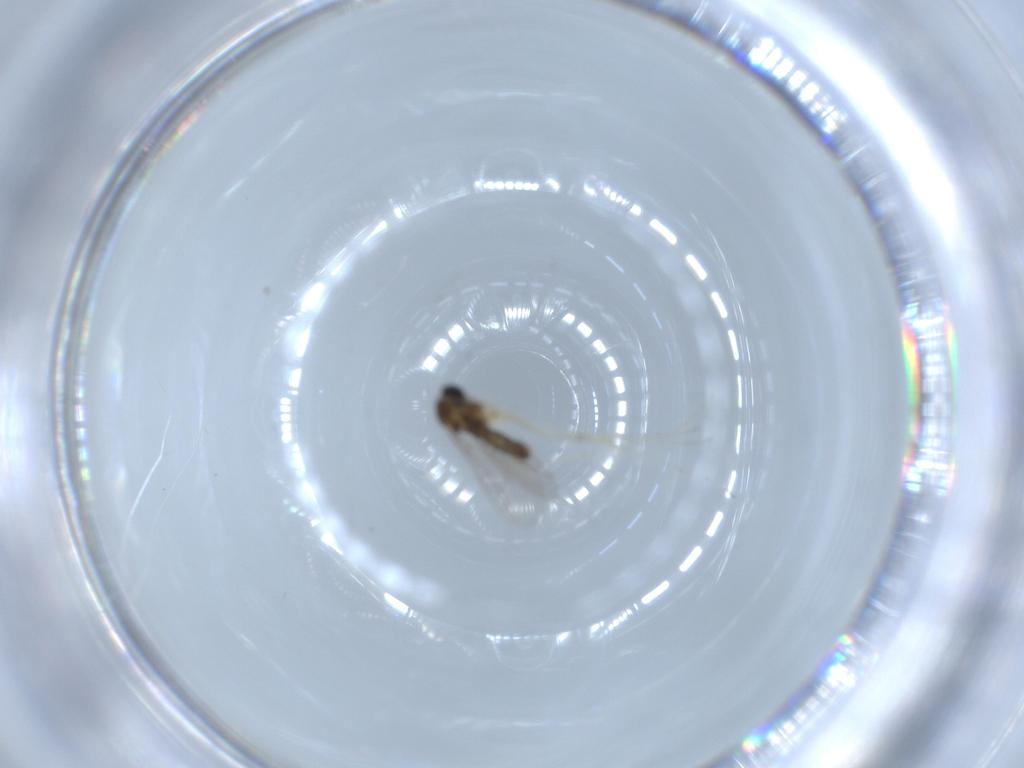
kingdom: Animalia
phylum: Arthropoda
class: Insecta
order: Diptera
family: Cecidomyiidae
